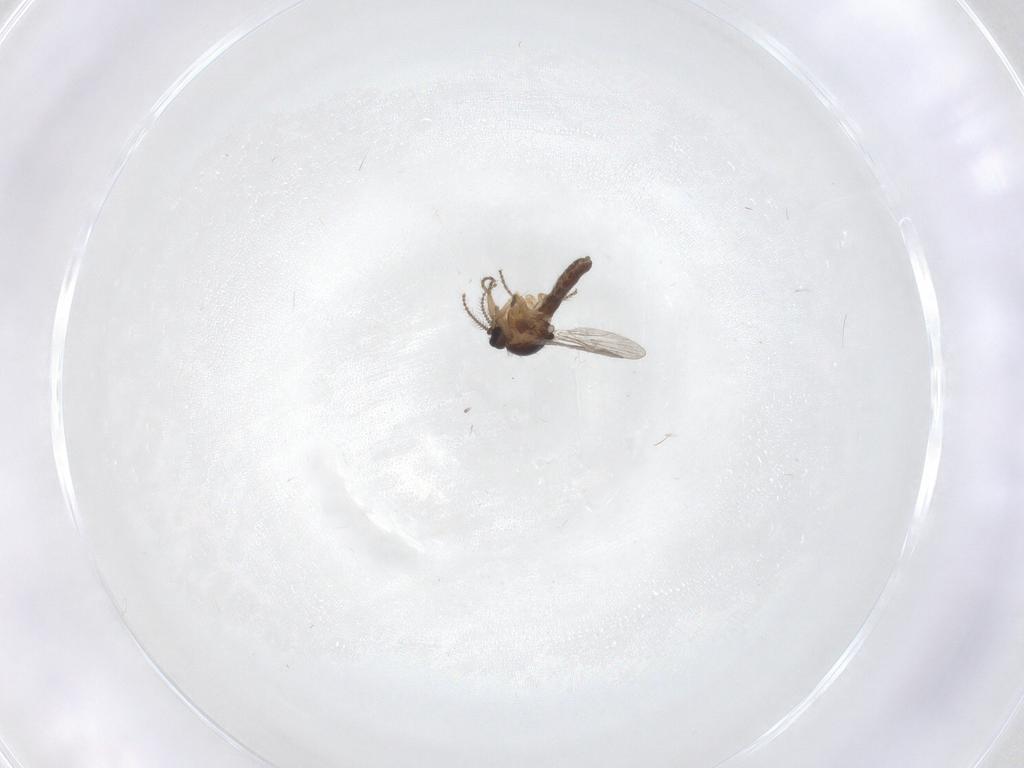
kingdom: Animalia
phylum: Arthropoda
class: Insecta
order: Diptera
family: Ceratopogonidae
